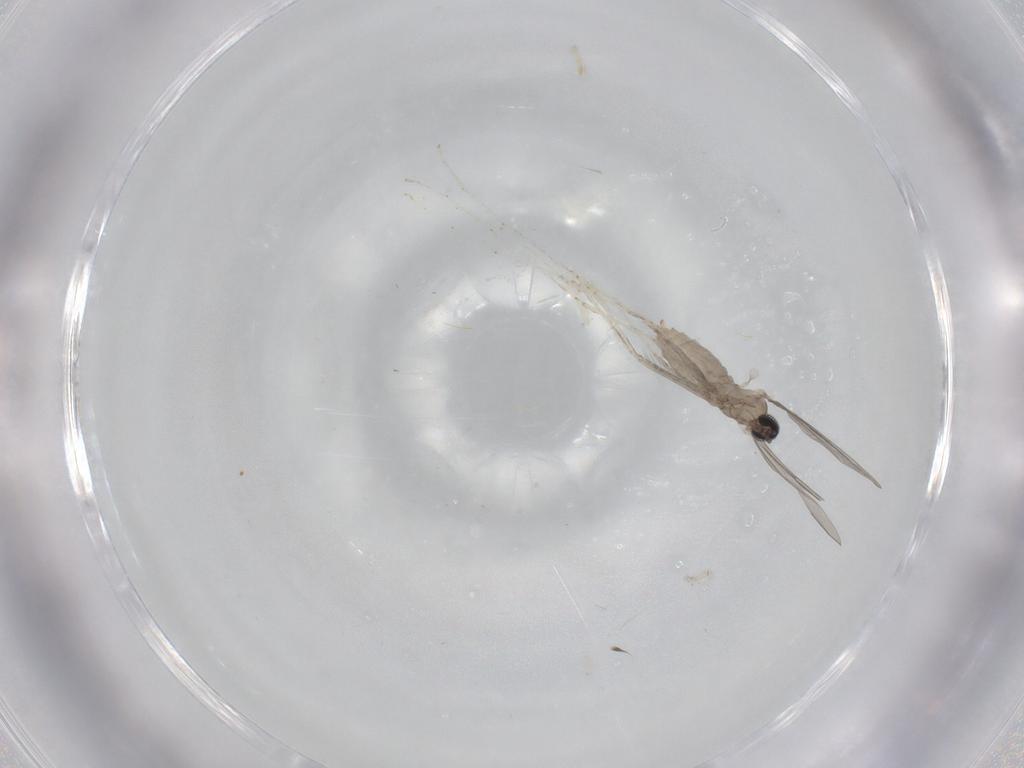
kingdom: Animalia
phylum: Arthropoda
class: Insecta
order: Diptera
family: Cecidomyiidae
